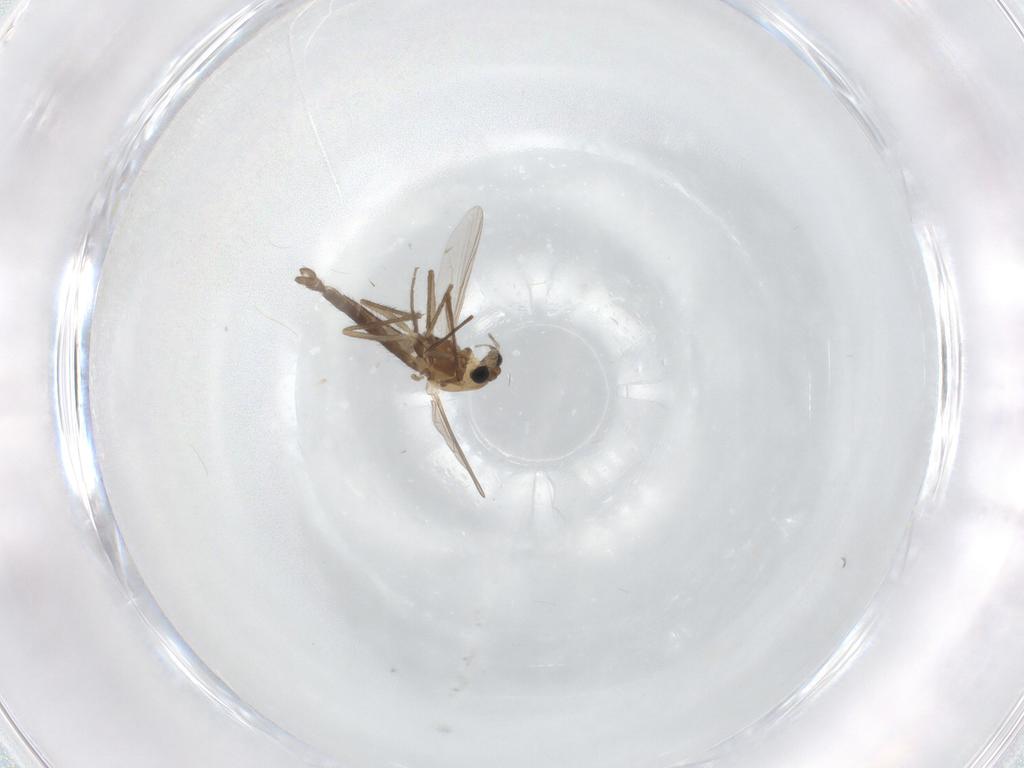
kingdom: Animalia
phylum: Arthropoda
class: Insecta
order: Diptera
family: Chironomidae
